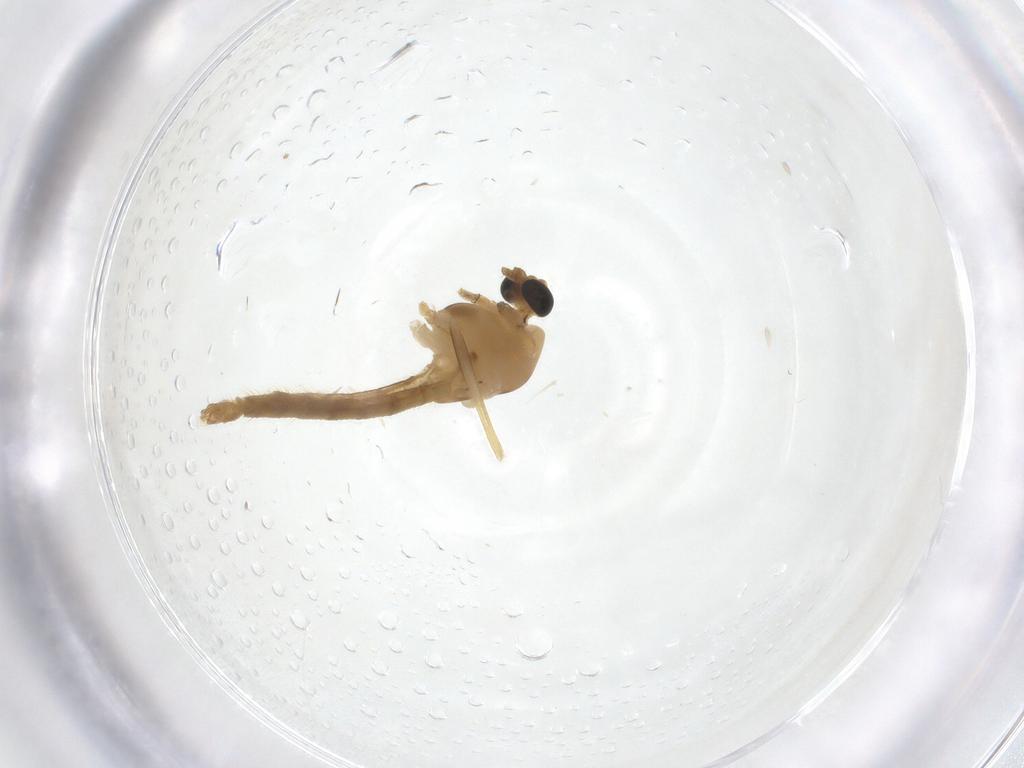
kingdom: Animalia
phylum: Arthropoda
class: Insecta
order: Diptera
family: Chironomidae
